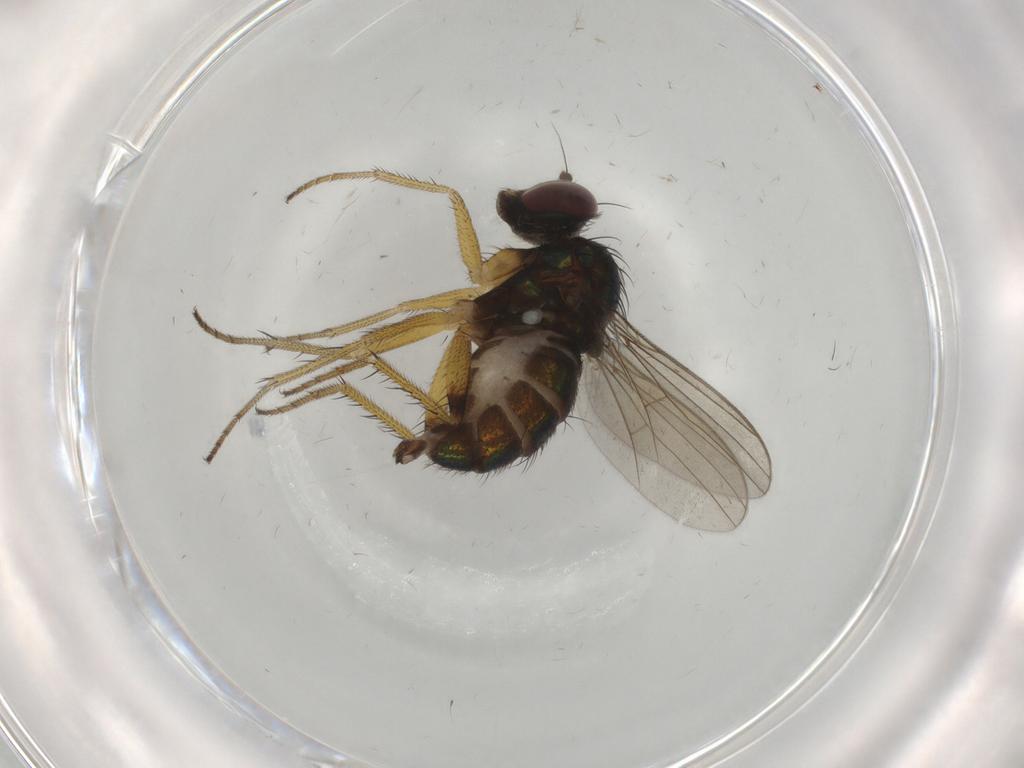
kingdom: Animalia
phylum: Arthropoda
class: Insecta
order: Diptera
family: Dolichopodidae
